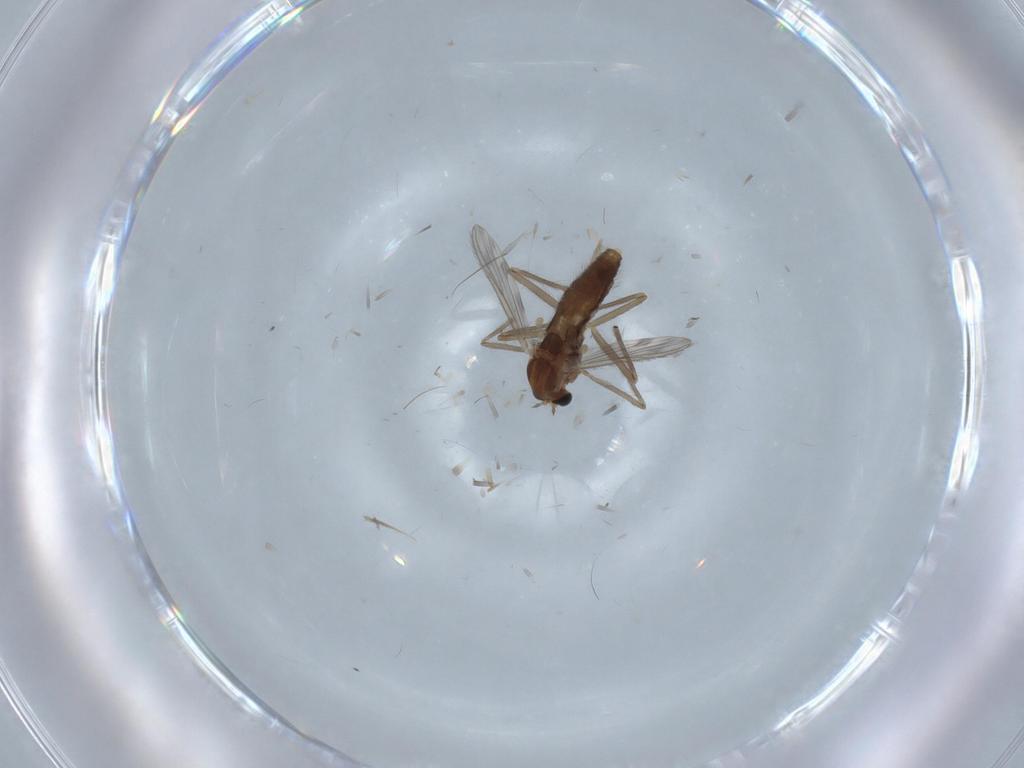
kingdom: Animalia
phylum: Arthropoda
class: Insecta
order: Diptera
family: Chironomidae
